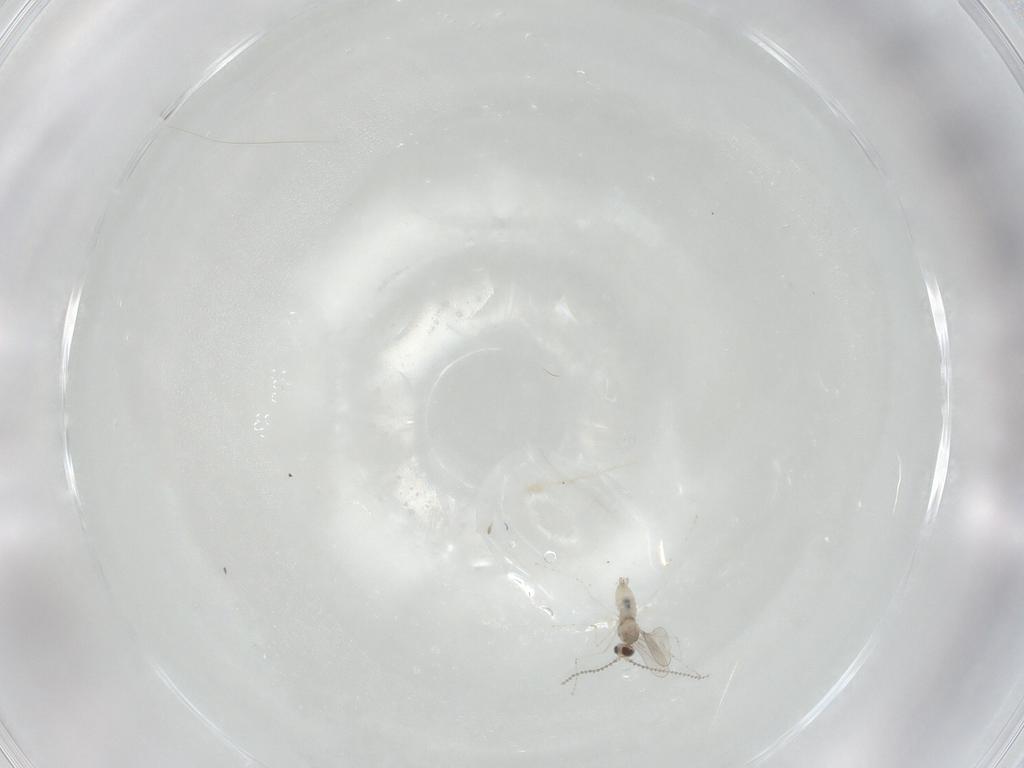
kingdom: Animalia
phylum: Arthropoda
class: Insecta
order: Diptera
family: Cecidomyiidae
